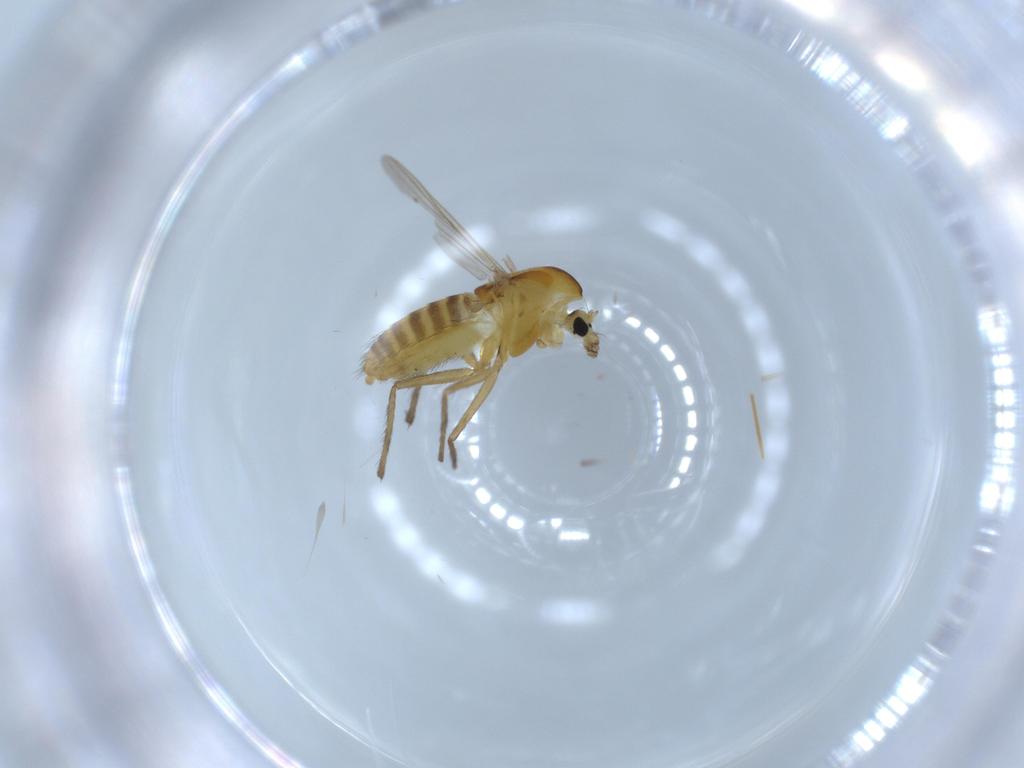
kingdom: Animalia
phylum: Arthropoda
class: Insecta
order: Diptera
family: Chironomidae
